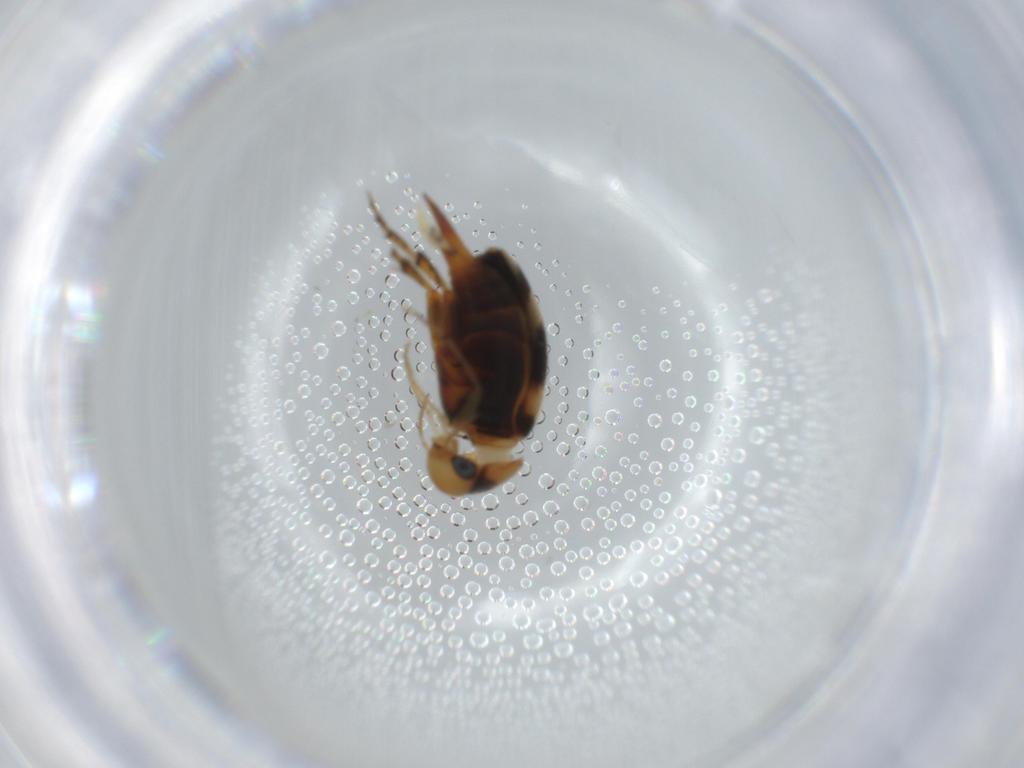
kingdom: Animalia
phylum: Arthropoda
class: Insecta
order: Coleoptera
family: Mordellidae
